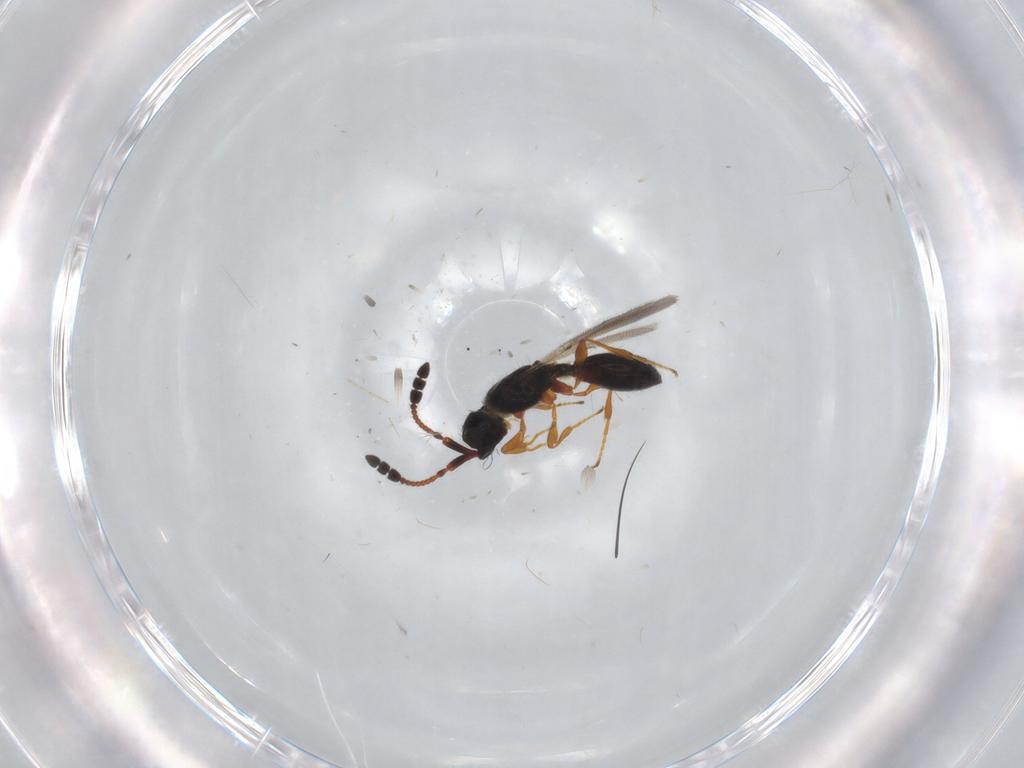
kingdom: Animalia
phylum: Arthropoda
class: Insecta
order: Hymenoptera
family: Diapriidae
